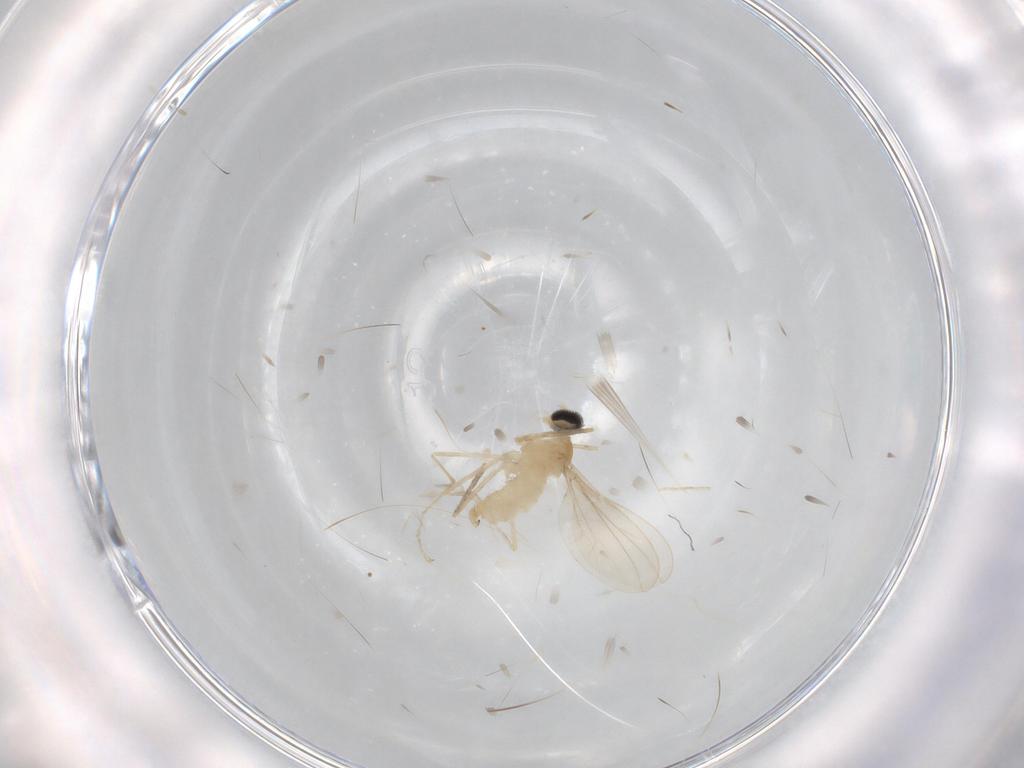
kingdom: Animalia
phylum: Arthropoda
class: Insecta
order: Diptera
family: Cecidomyiidae
